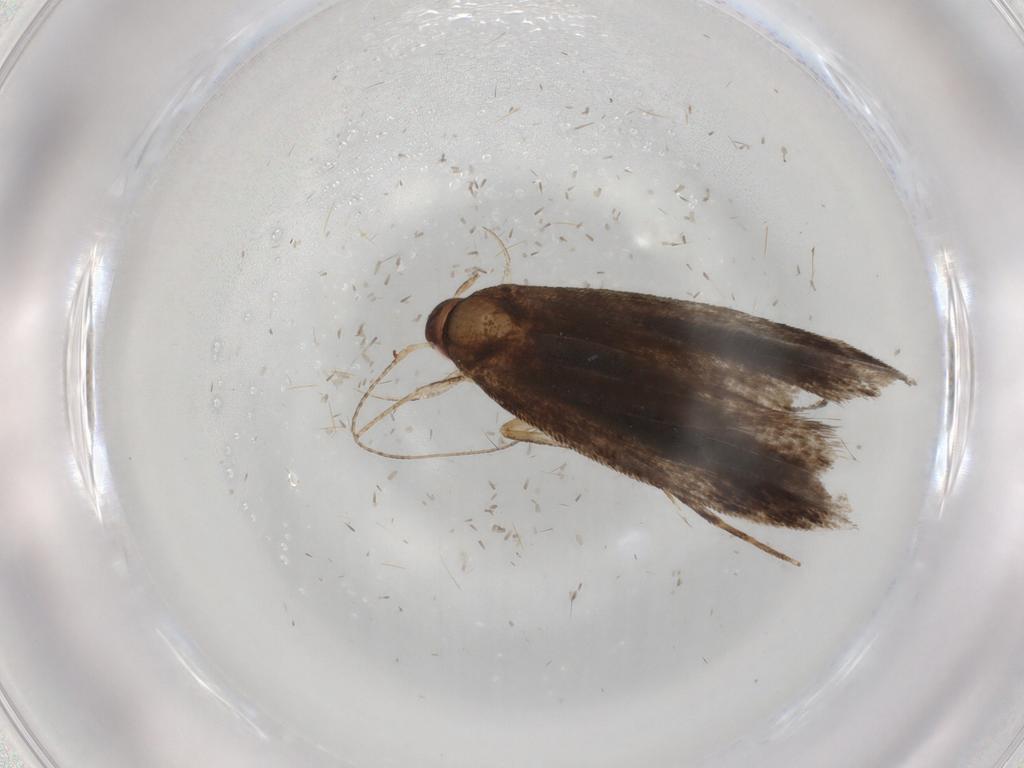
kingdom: Animalia
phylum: Arthropoda
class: Insecta
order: Lepidoptera
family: Gelechiidae
